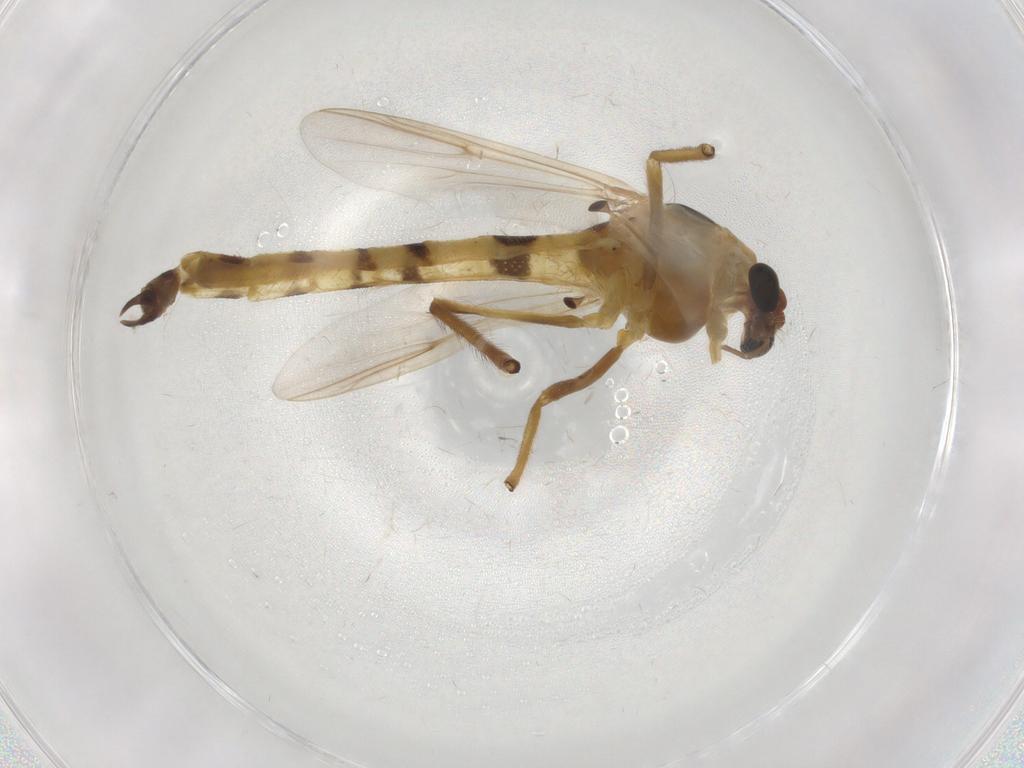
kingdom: Animalia
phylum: Arthropoda
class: Insecta
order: Diptera
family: Chironomidae
